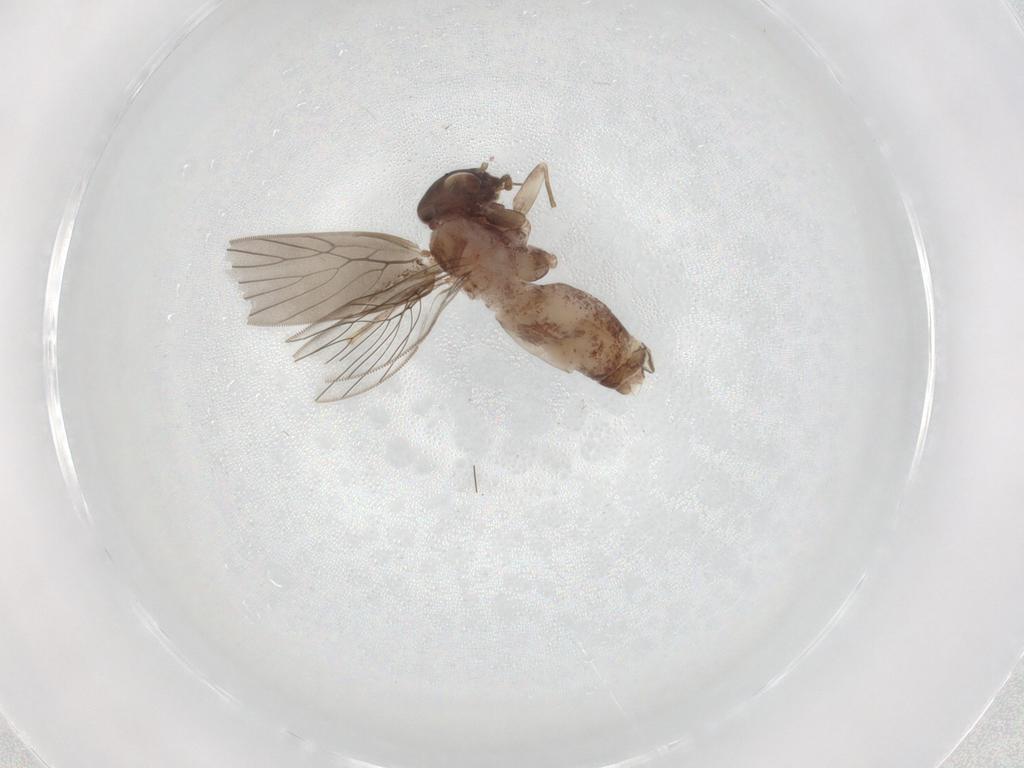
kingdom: Animalia
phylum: Arthropoda
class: Insecta
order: Psocodea
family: Lepidopsocidae
